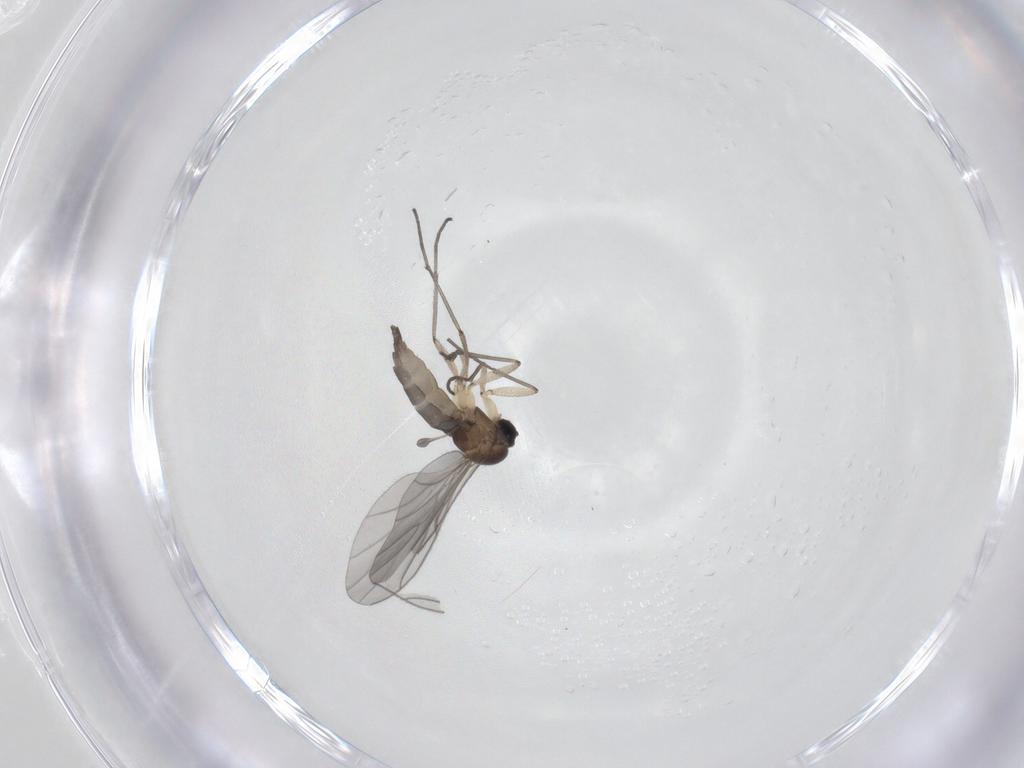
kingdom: Animalia
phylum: Arthropoda
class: Insecta
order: Diptera
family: Sciaridae
